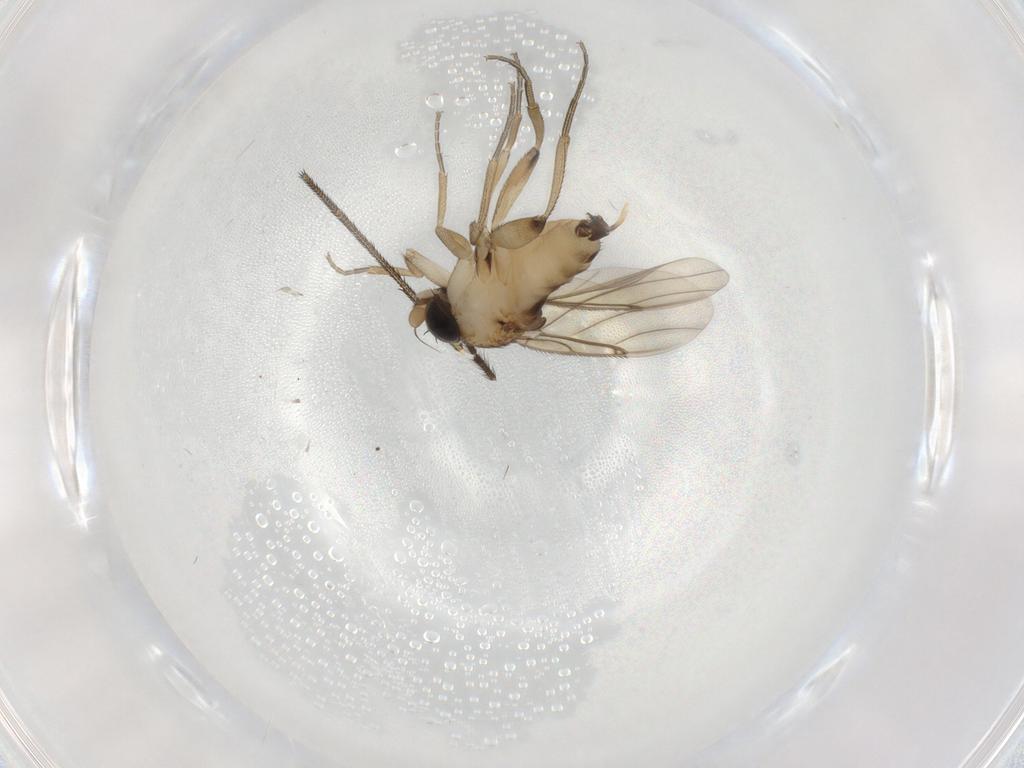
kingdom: Animalia
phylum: Arthropoda
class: Insecta
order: Diptera
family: Dolichopodidae
